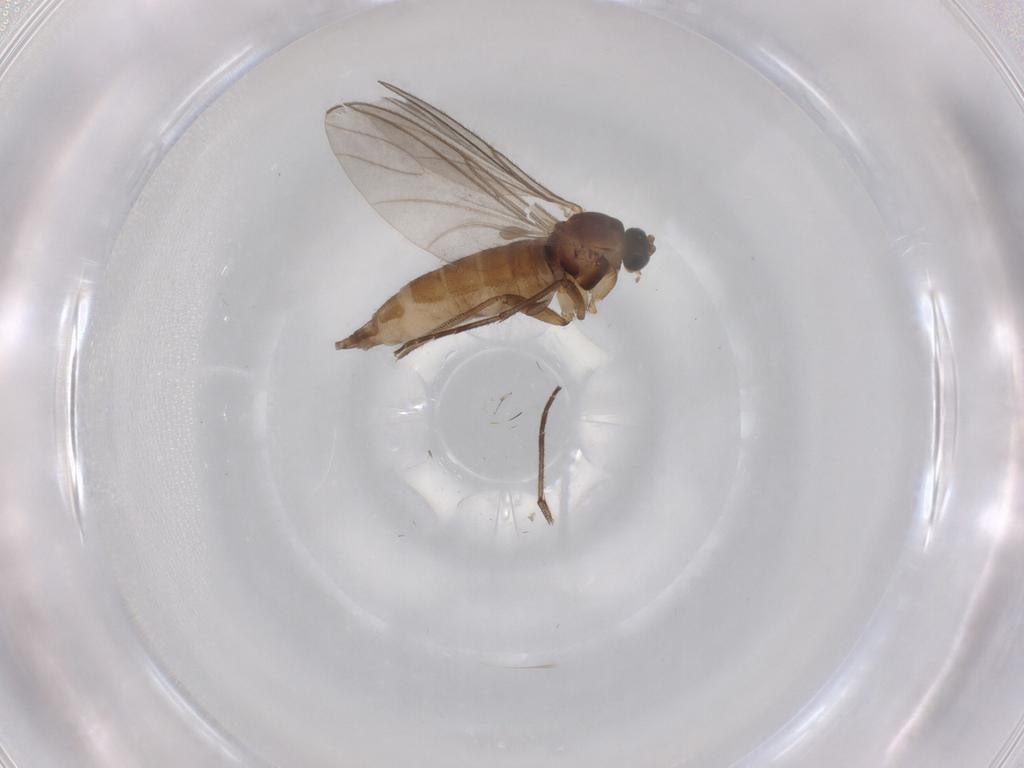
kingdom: Animalia
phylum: Arthropoda
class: Insecta
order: Diptera
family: Sciaridae
